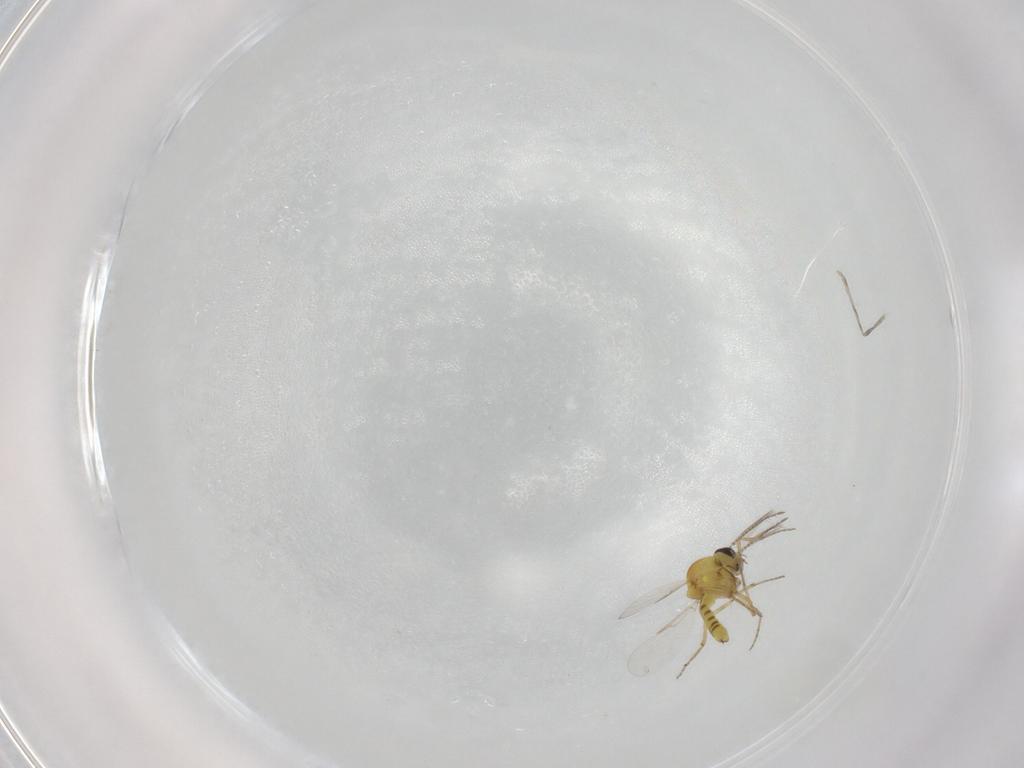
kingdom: Animalia
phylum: Arthropoda
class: Insecta
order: Diptera
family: Ceratopogonidae
